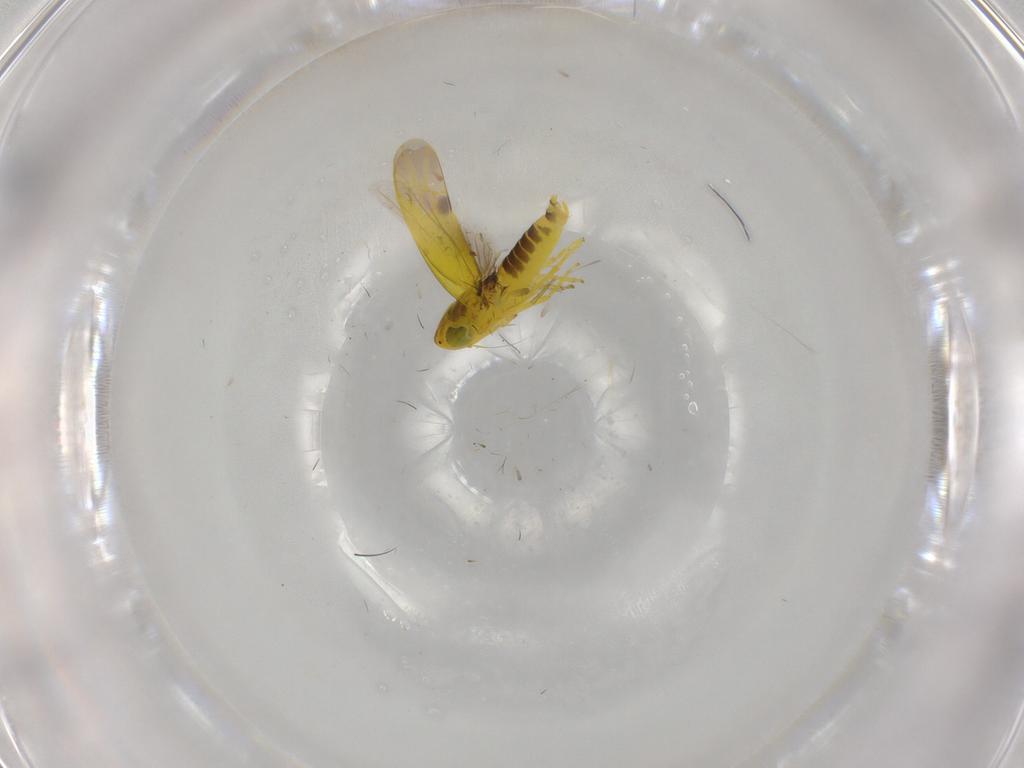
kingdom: Animalia
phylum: Arthropoda
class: Insecta
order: Hemiptera
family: Cicadellidae
